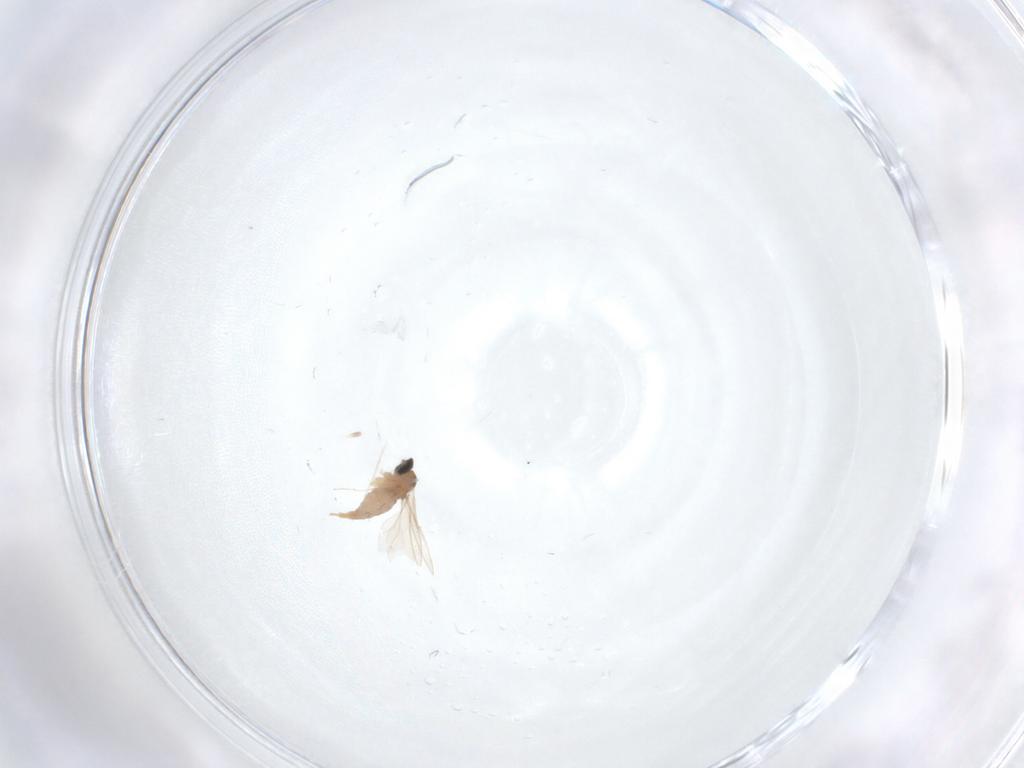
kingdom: Animalia
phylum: Arthropoda
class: Insecta
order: Diptera
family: Cecidomyiidae
